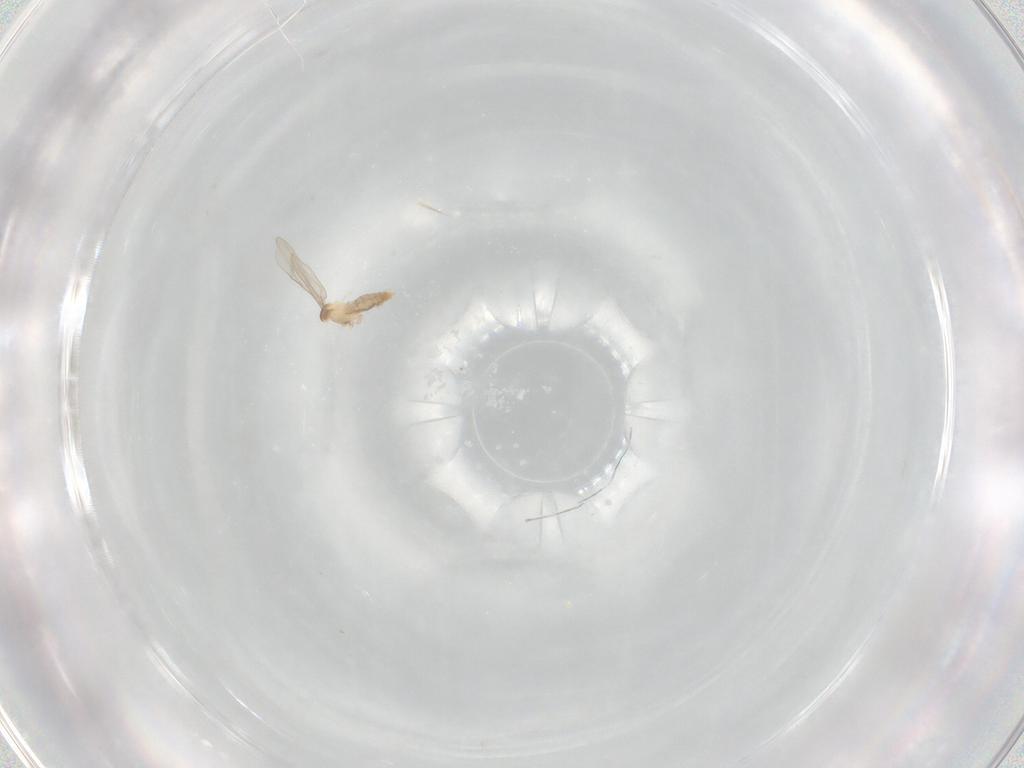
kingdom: Animalia
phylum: Arthropoda
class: Insecta
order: Diptera
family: Cecidomyiidae
